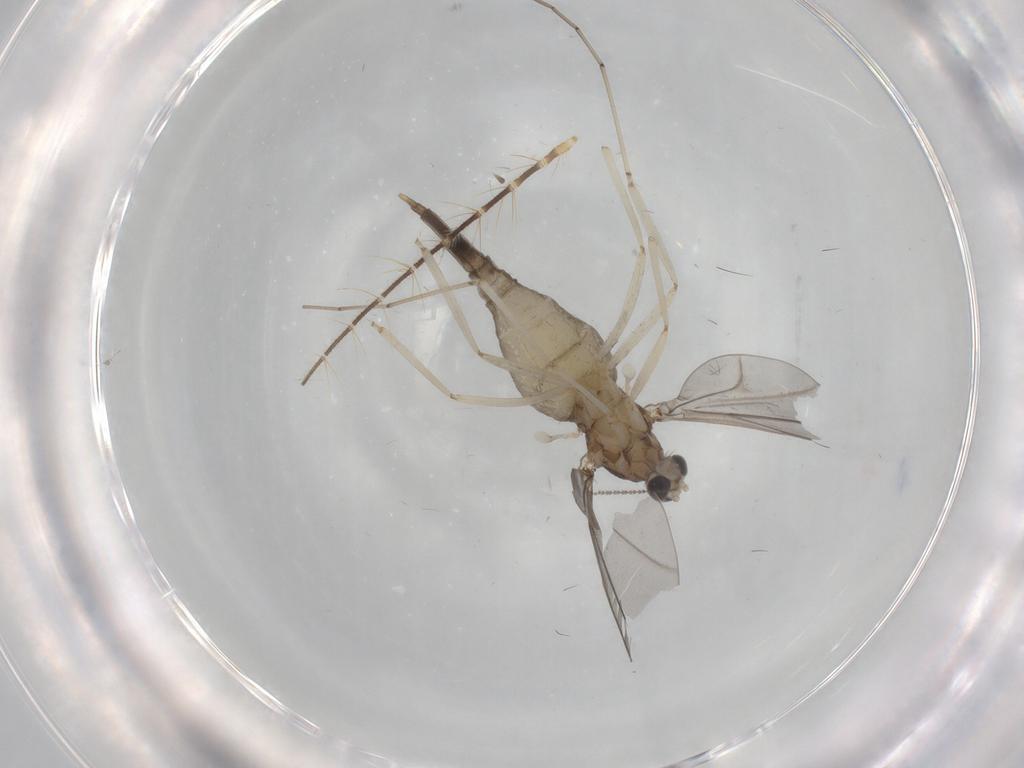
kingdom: Animalia
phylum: Arthropoda
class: Insecta
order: Diptera
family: Cecidomyiidae
